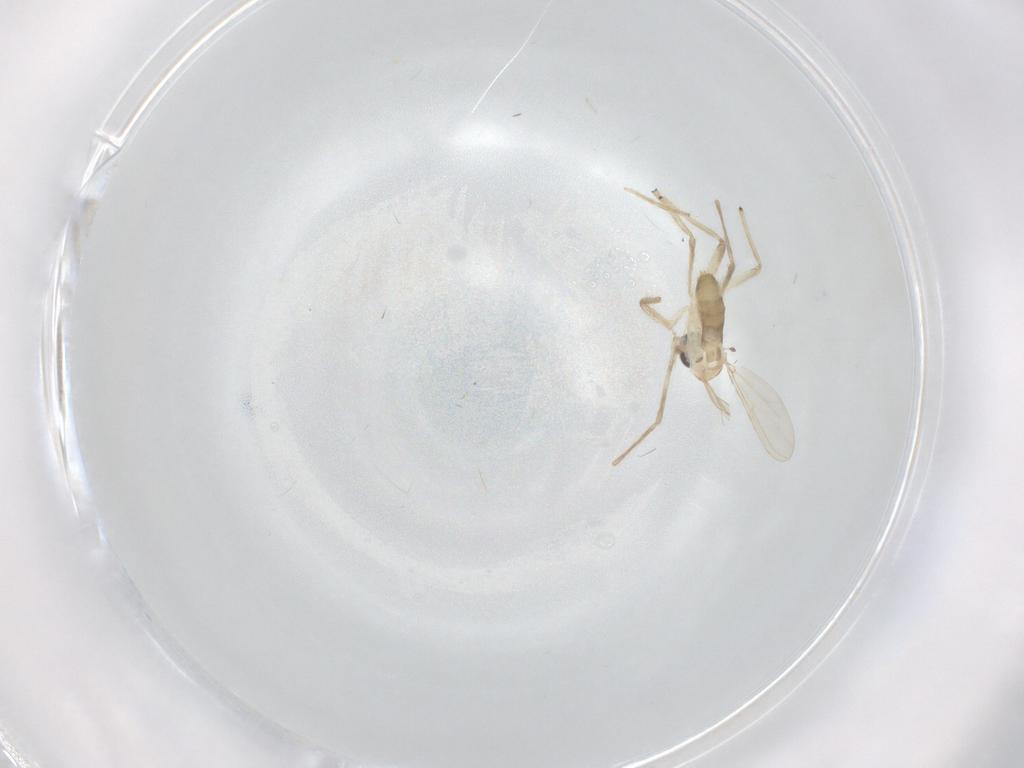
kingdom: Animalia
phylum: Arthropoda
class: Insecta
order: Diptera
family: Chironomidae
